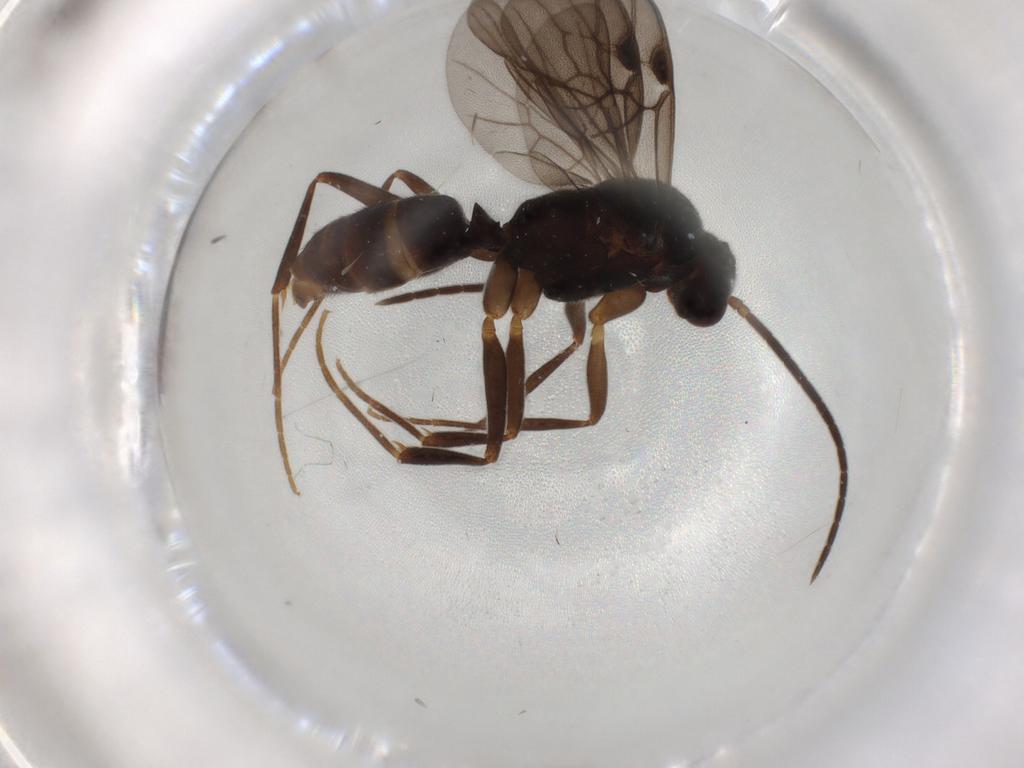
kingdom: Animalia
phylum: Arthropoda
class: Insecta
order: Hymenoptera
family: Formicidae
